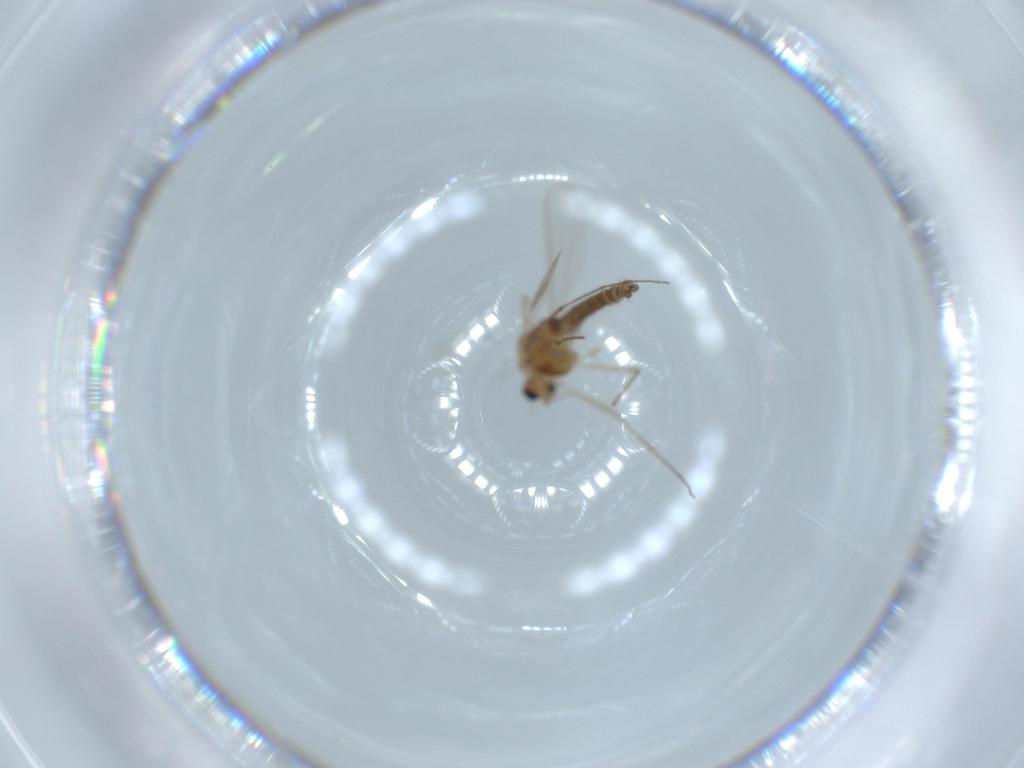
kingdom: Animalia
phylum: Arthropoda
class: Insecta
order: Diptera
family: Chironomidae
